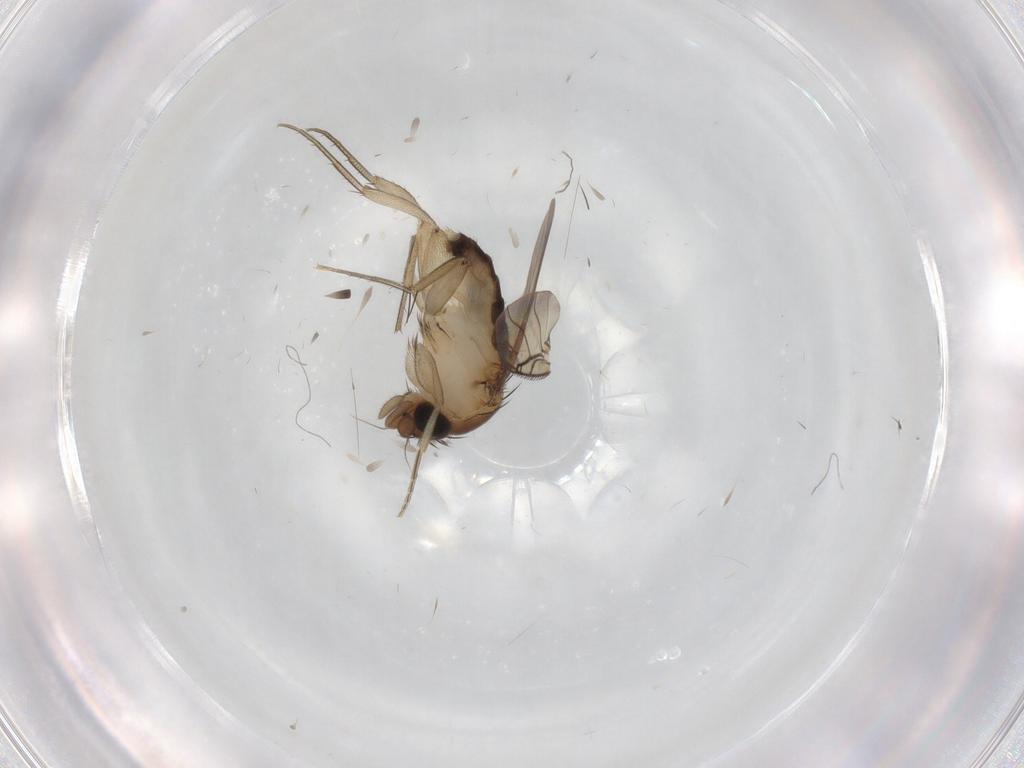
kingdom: Animalia
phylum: Arthropoda
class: Insecta
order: Diptera
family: Phoridae
